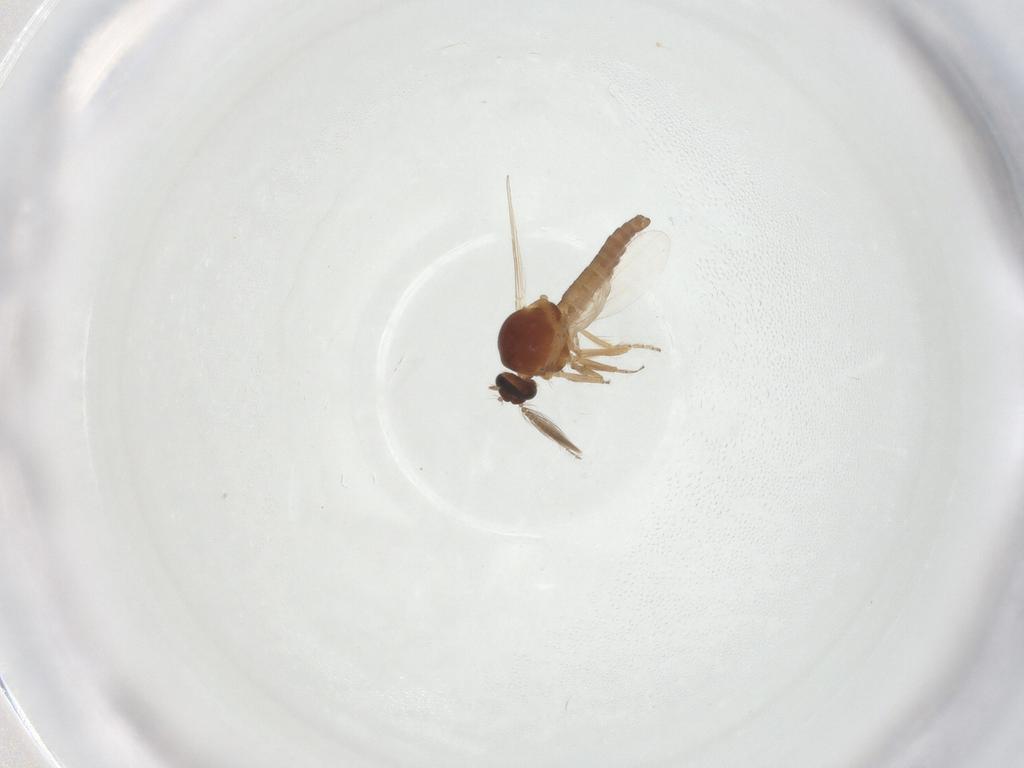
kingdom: Animalia
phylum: Arthropoda
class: Insecta
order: Diptera
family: Ceratopogonidae
